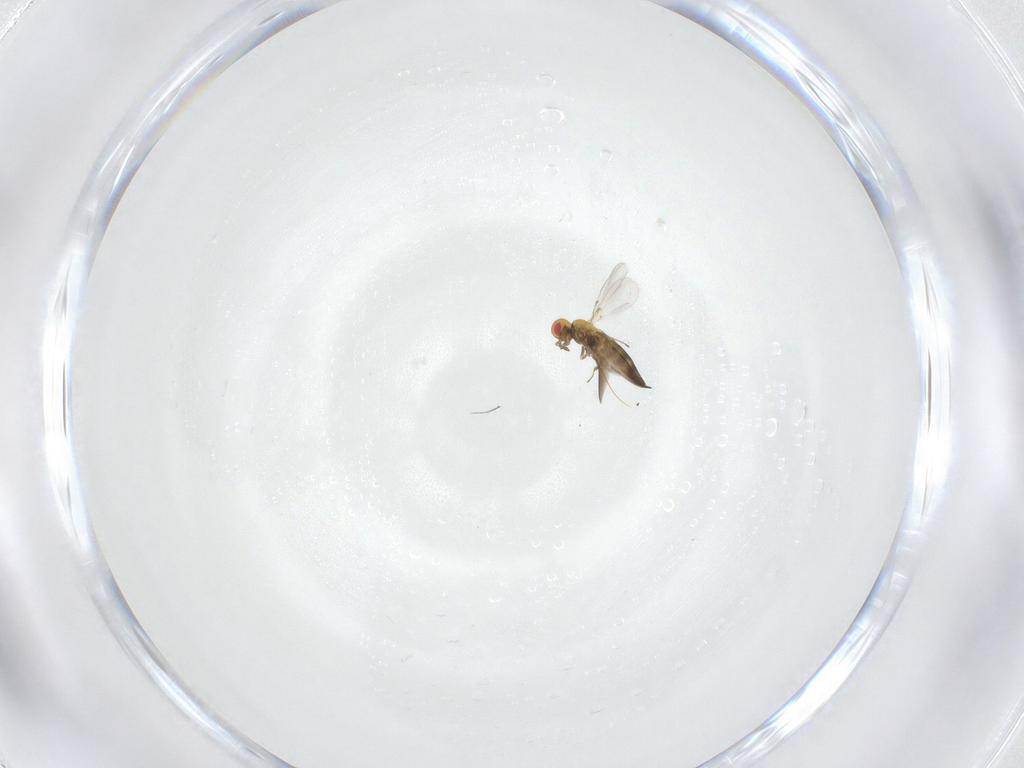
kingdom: Animalia
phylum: Arthropoda
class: Insecta
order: Hymenoptera
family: Trichogrammatidae
